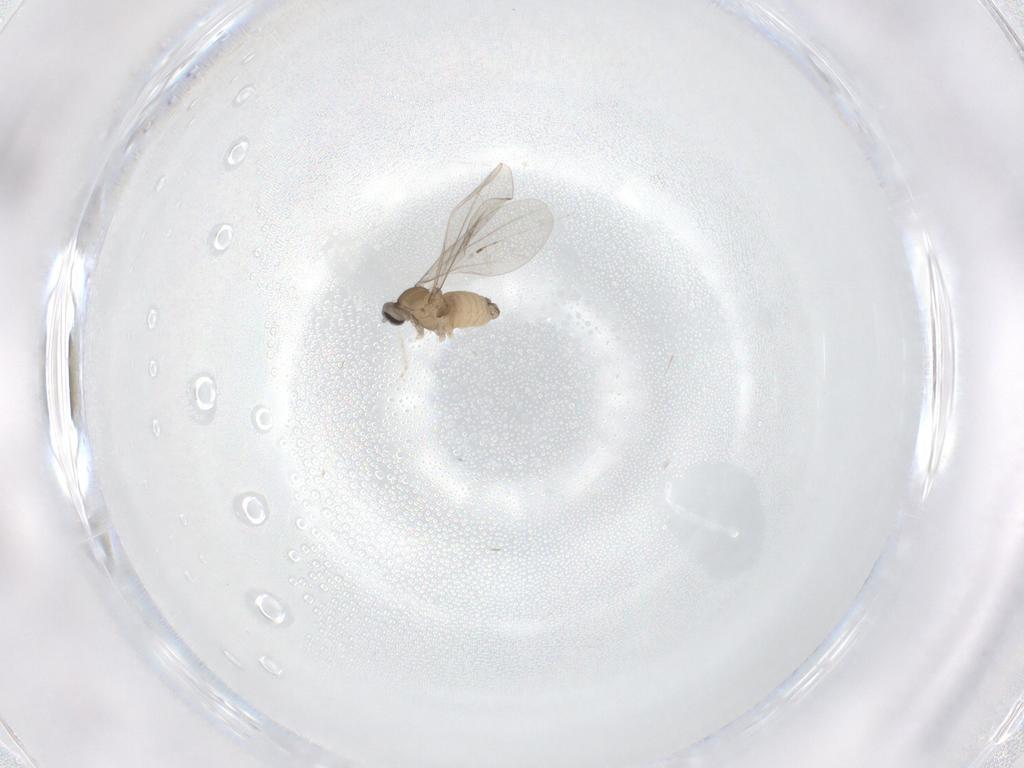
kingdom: Animalia
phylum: Arthropoda
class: Insecta
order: Diptera
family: Cecidomyiidae
